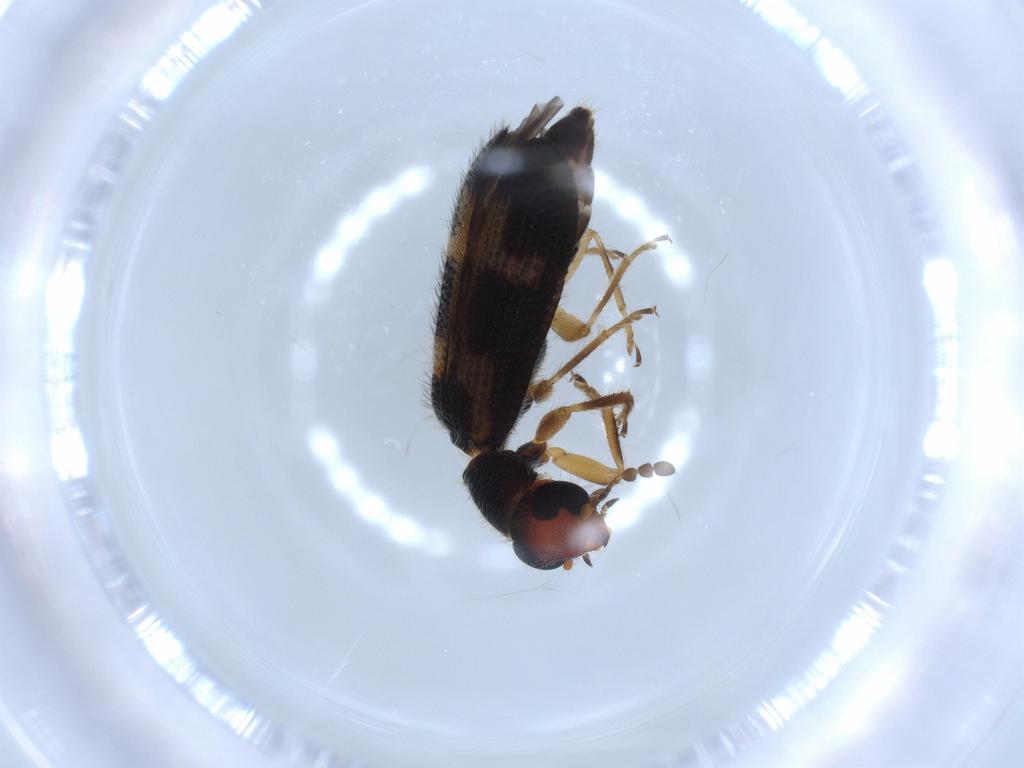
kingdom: Animalia
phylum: Arthropoda
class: Insecta
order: Coleoptera
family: Cleridae
